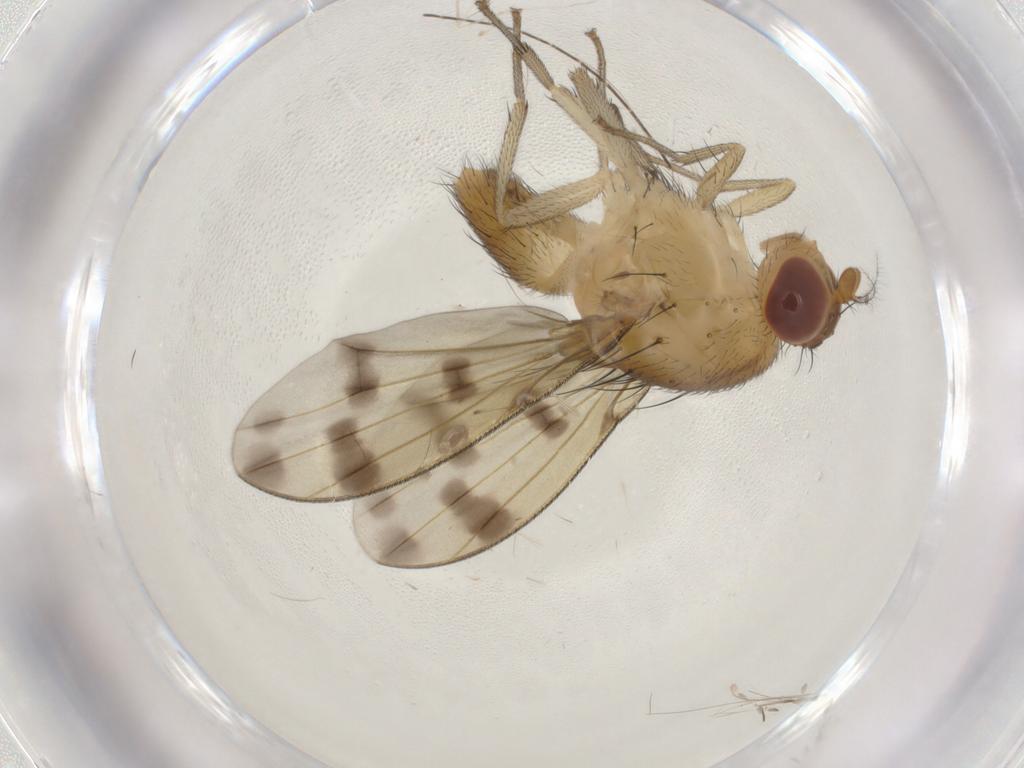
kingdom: Animalia
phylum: Arthropoda
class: Insecta
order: Diptera
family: Cecidomyiidae
